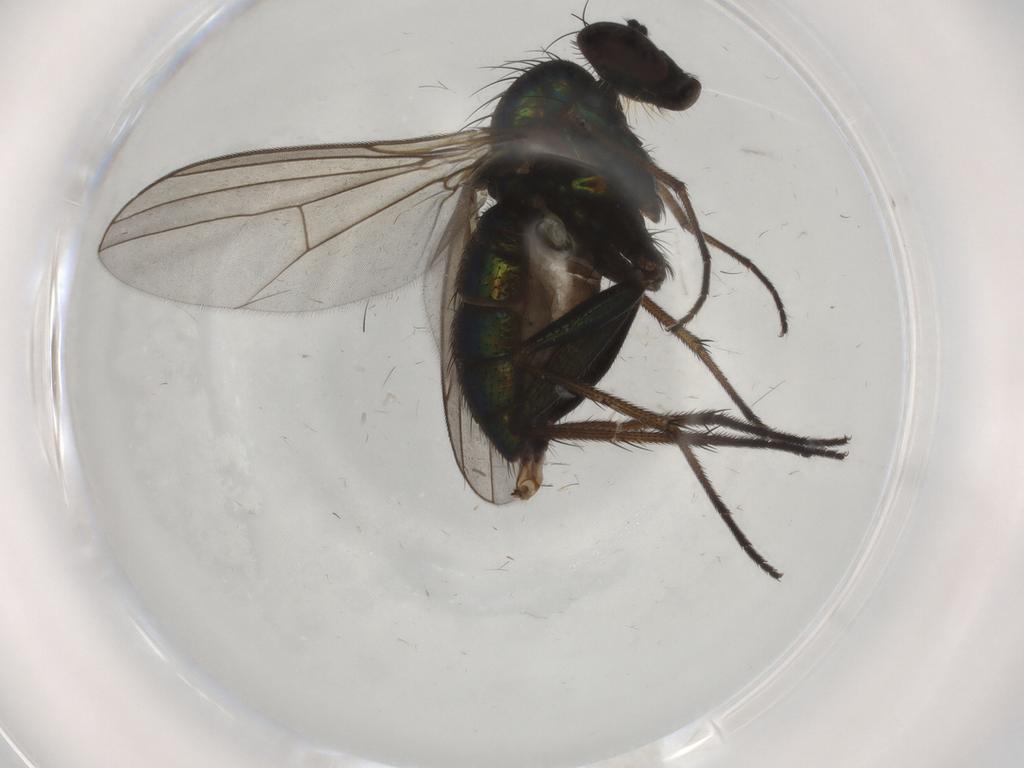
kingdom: Animalia
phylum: Arthropoda
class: Insecta
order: Diptera
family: Drosophilidae
